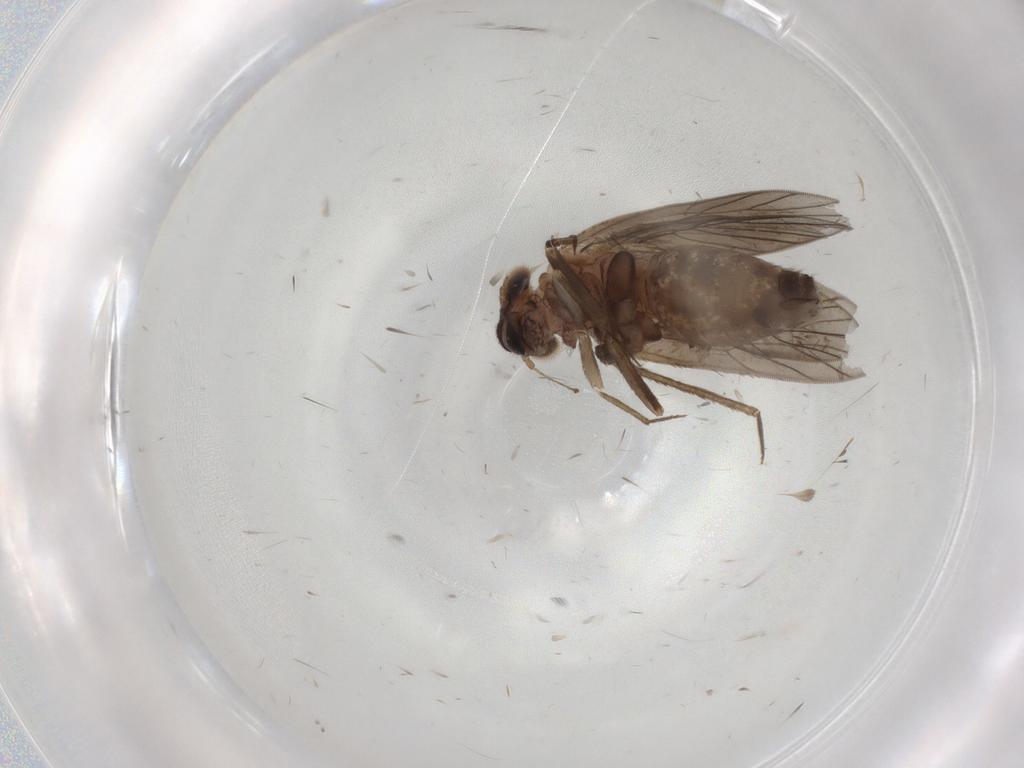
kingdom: Animalia
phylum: Arthropoda
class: Insecta
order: Psocodea
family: Lepidopsocidae
